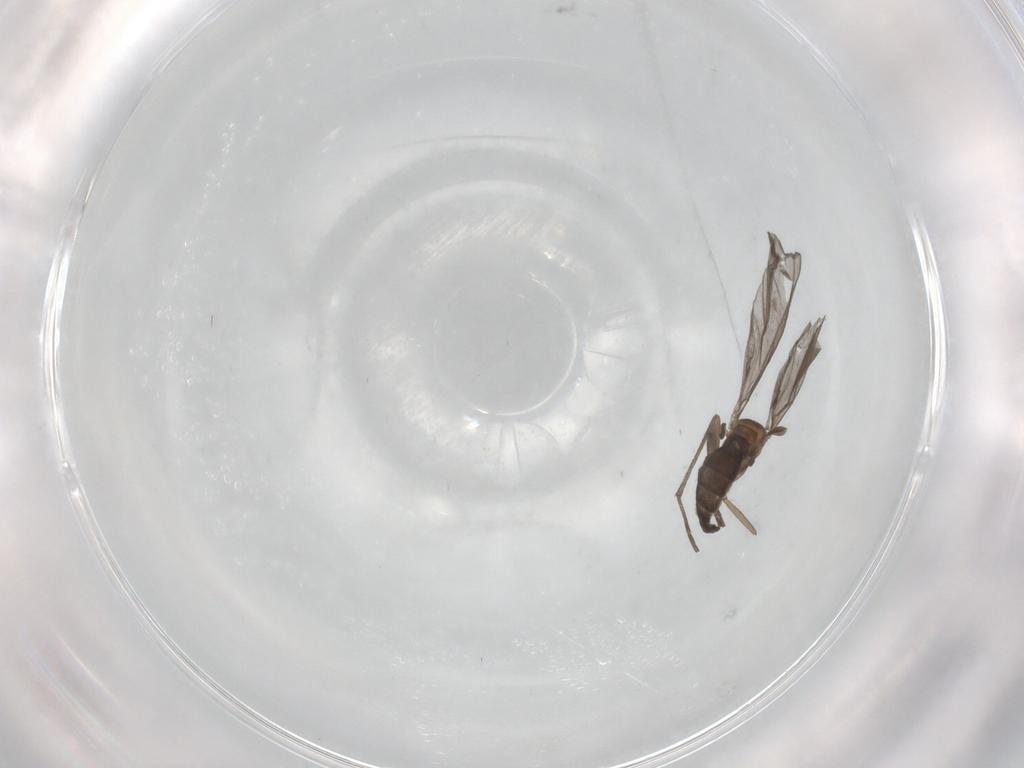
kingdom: Animalia
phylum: Arthropoda
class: Insecta
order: Diptera
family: Sciaridae
